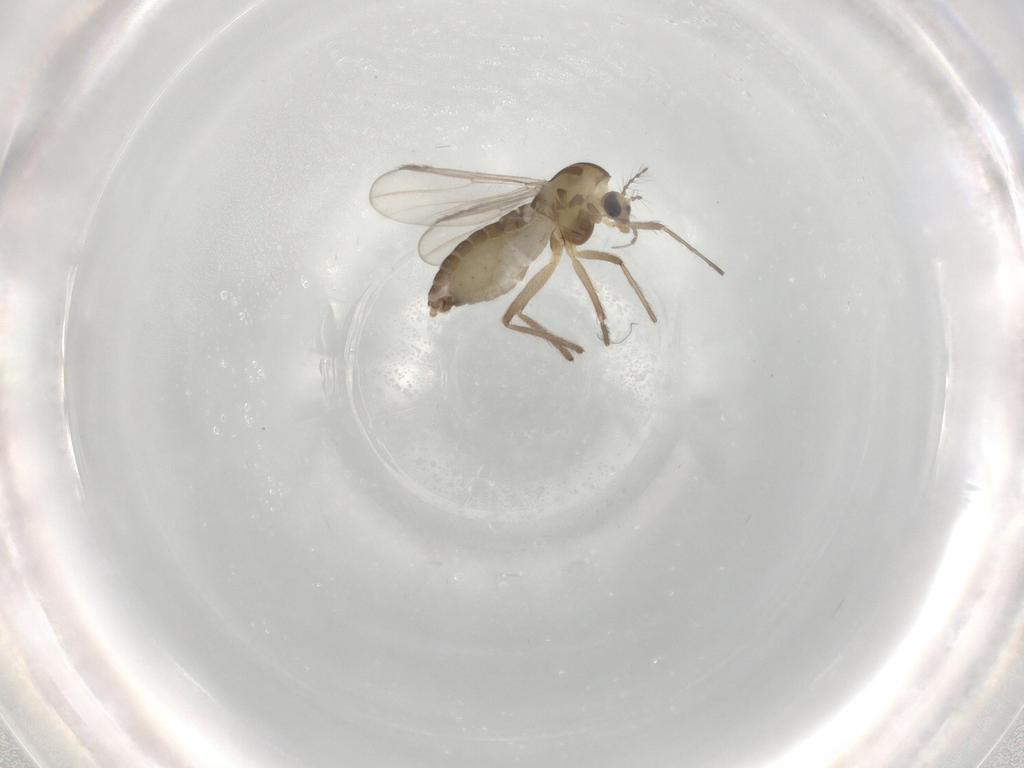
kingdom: Animalia
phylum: Arthropoda
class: Insecta
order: Diptera
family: Chironomidae
